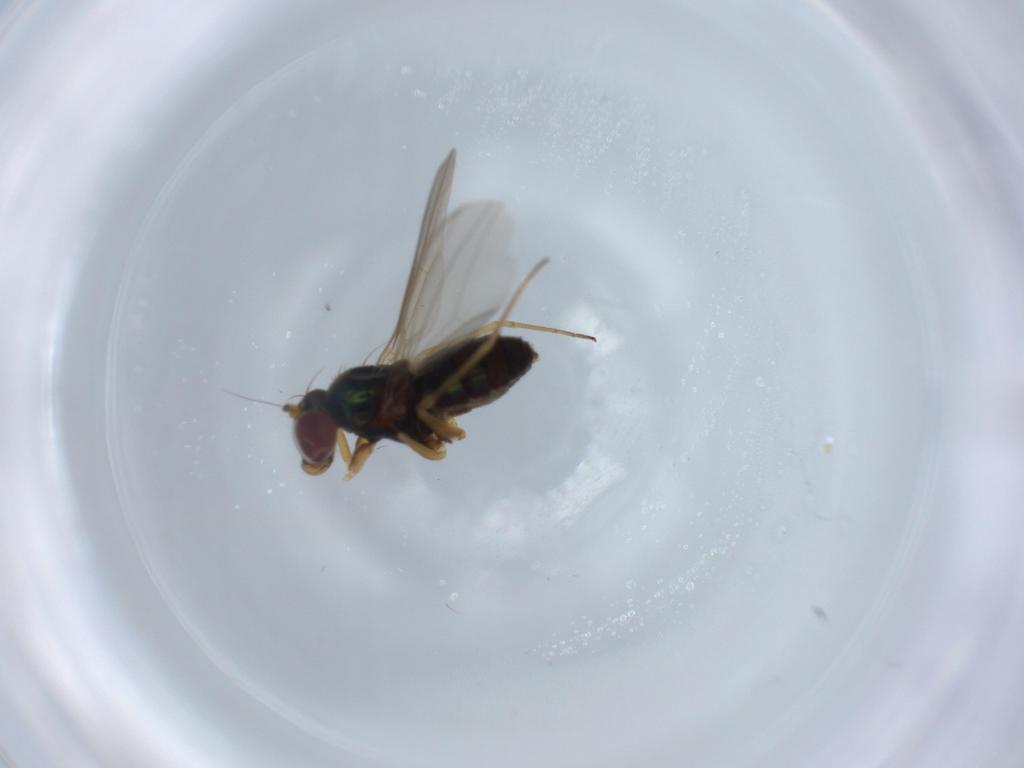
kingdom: Animalia
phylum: Arthropoda
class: Insecta
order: Diptera
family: Dolichopodidae
